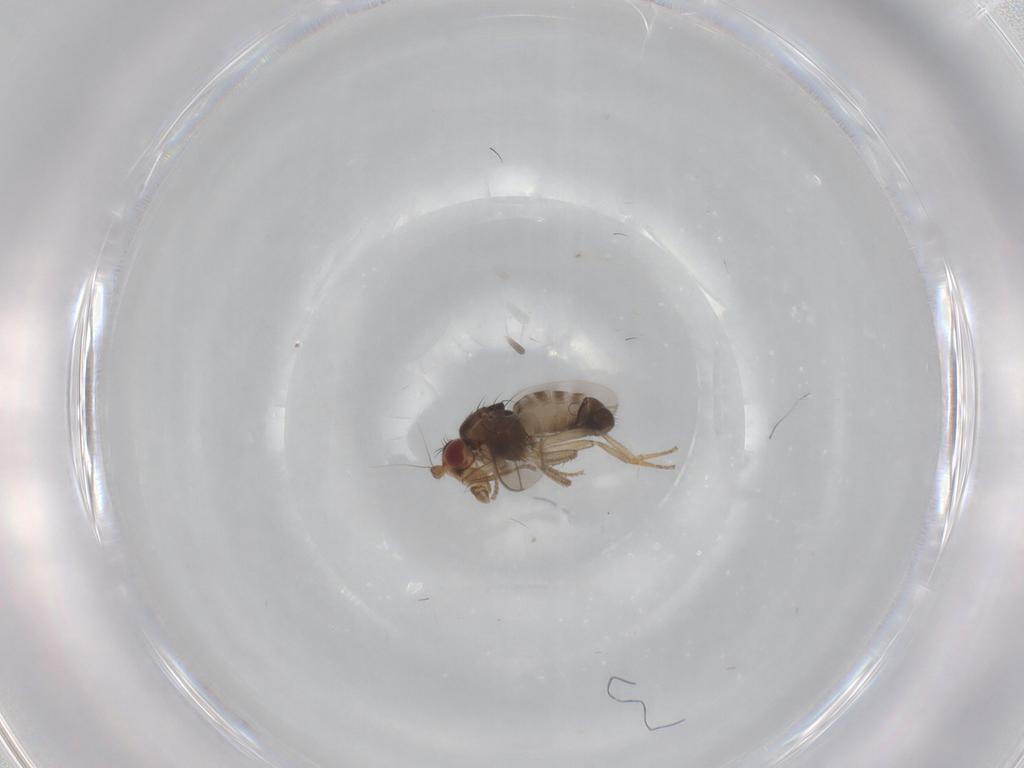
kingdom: Animalia
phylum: Arthropoda
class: Insecta
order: Diptera
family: Sphaeroceridae
